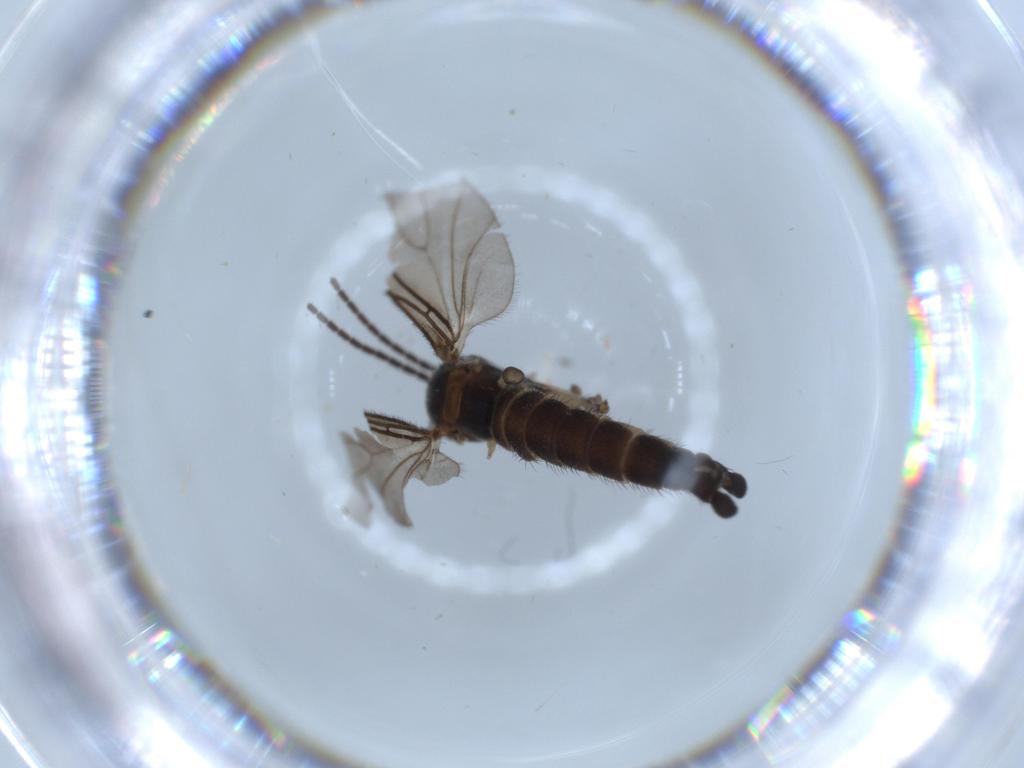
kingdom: Animalia
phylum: Arthropoda
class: Insecta
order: Diptera
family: Sciaridae
